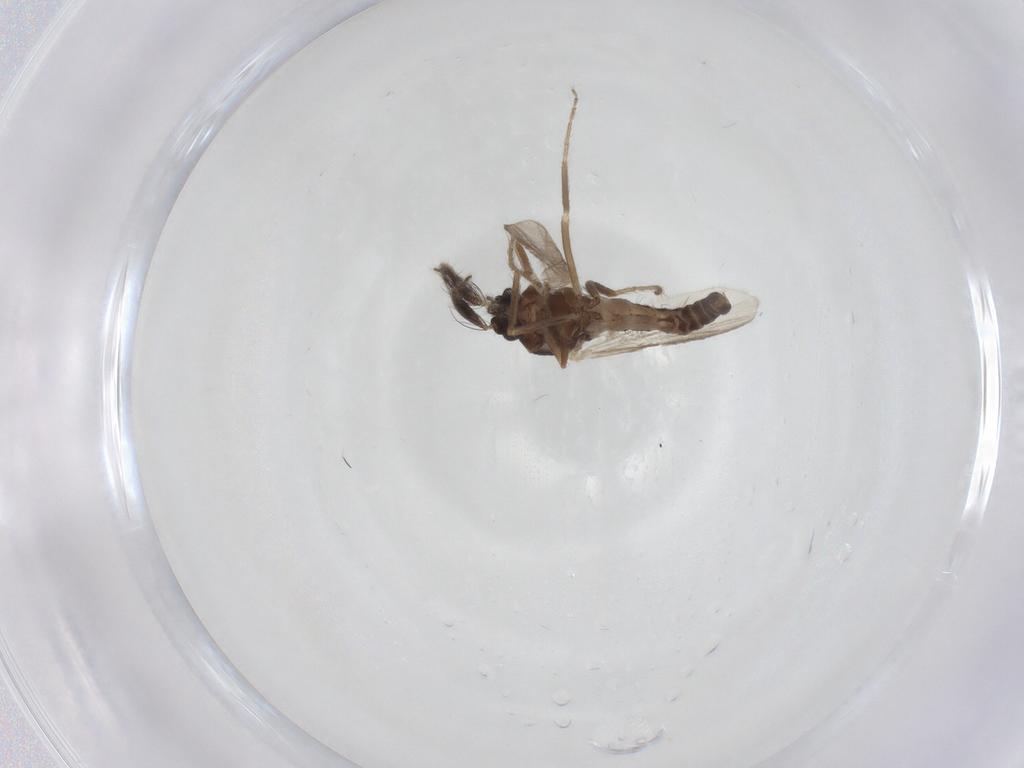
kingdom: Animalia
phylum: Arthropoda
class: Insecta
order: Diptera
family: Ceratopogonidae
